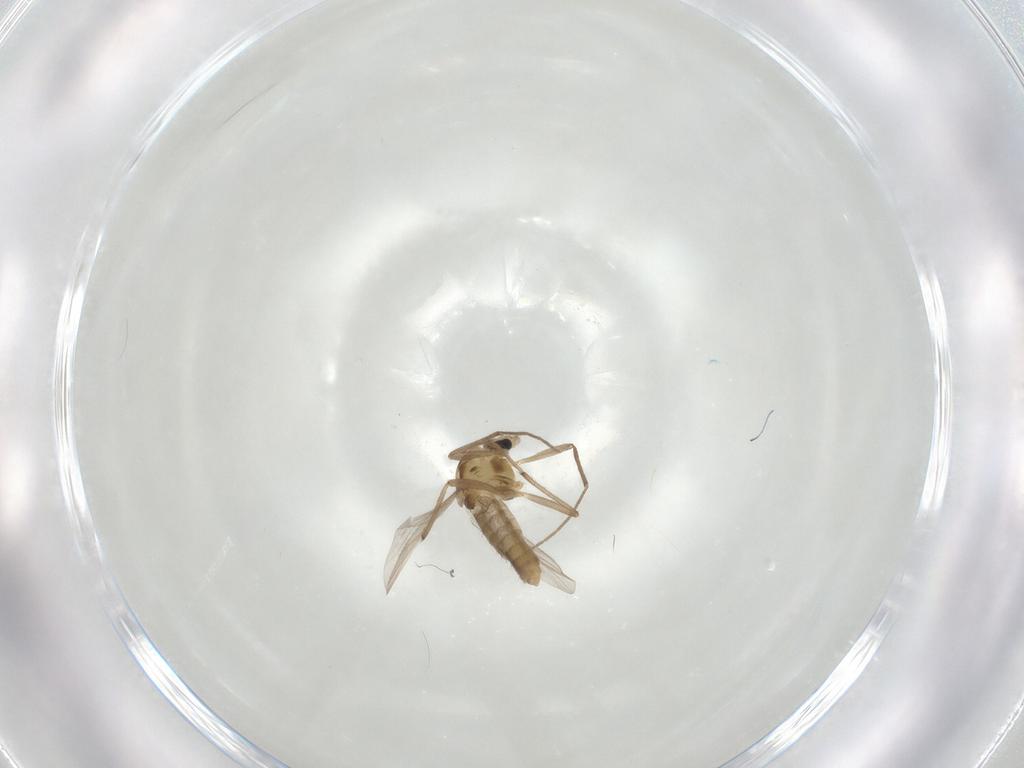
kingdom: Animalia
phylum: Arthropoda
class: Insecta
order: Diptera
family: Chironomidae
